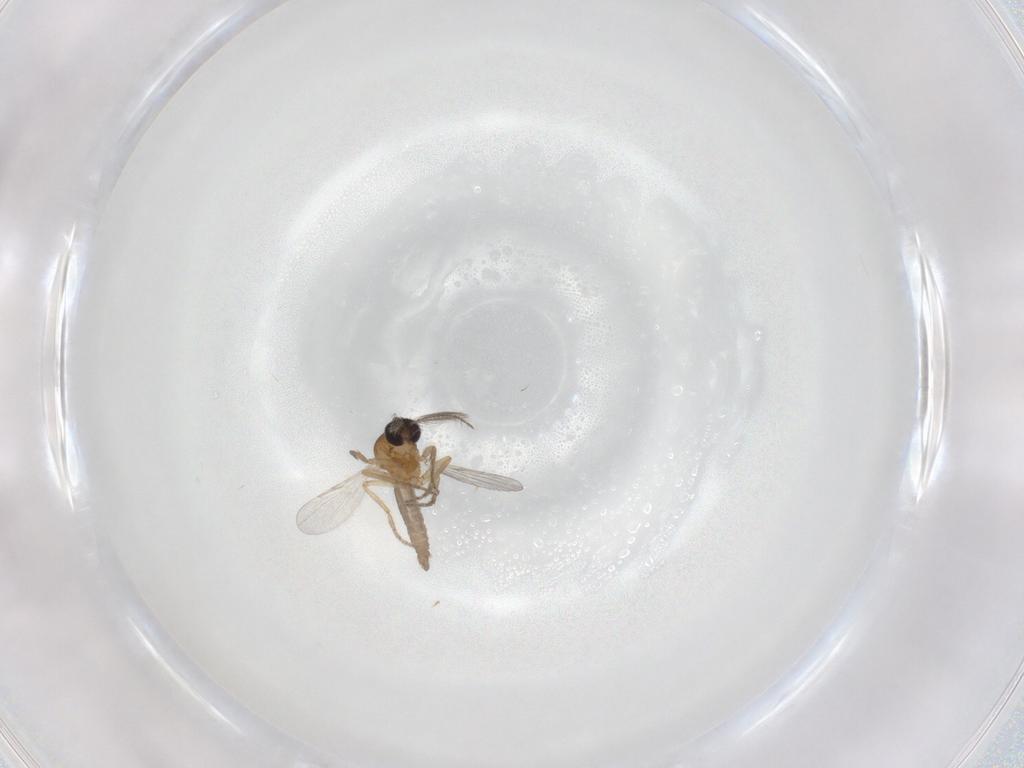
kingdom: Animalia
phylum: Arthropoda
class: Insecta
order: Diptera
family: Ceratopogonidae
